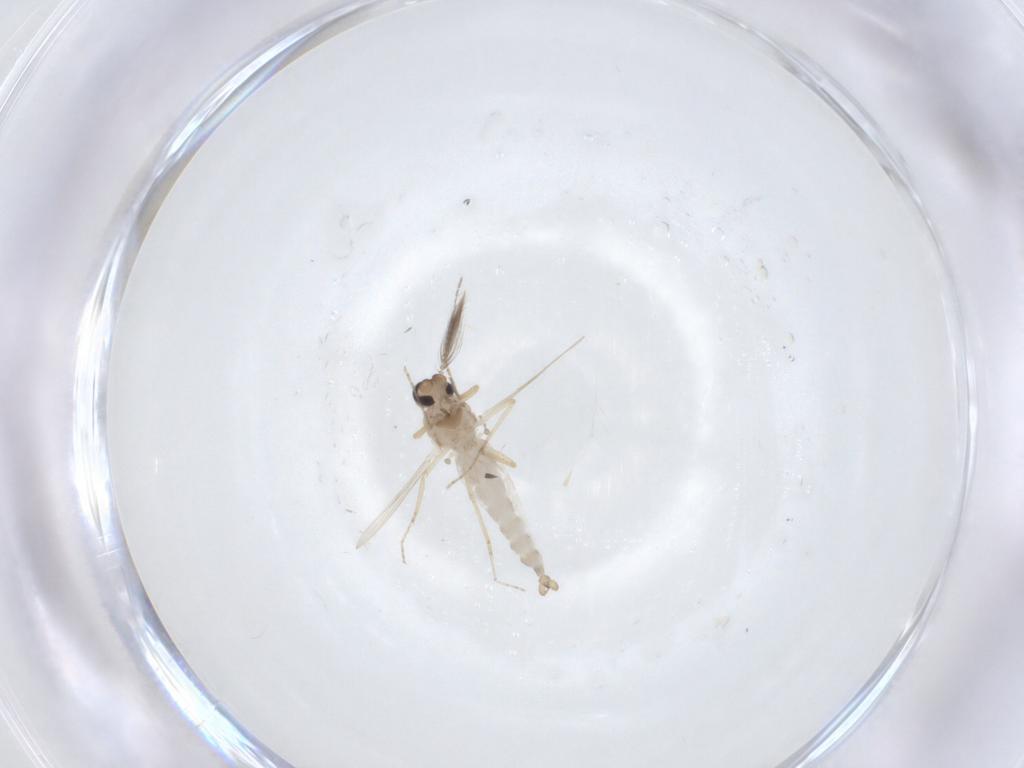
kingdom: Animalia
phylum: Arthropoda
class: Insecta
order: Diptera
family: Ceratopogonidae
